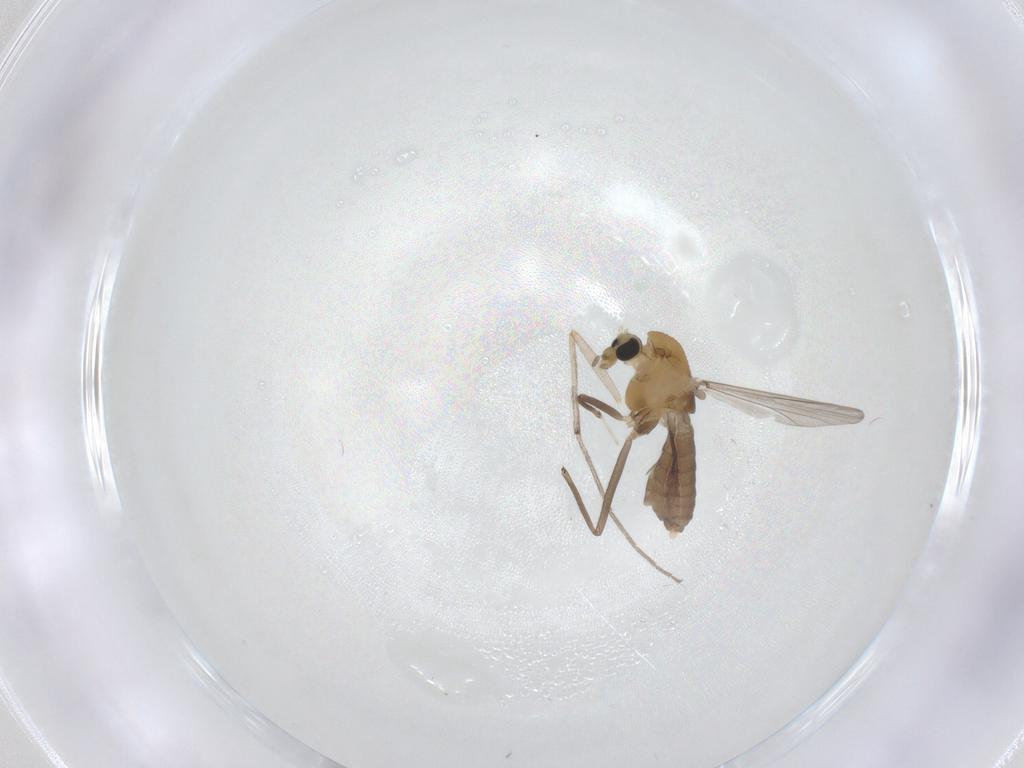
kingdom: Animalia
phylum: Arthropoda
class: Insecta
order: Diptera
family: Chironomidae
